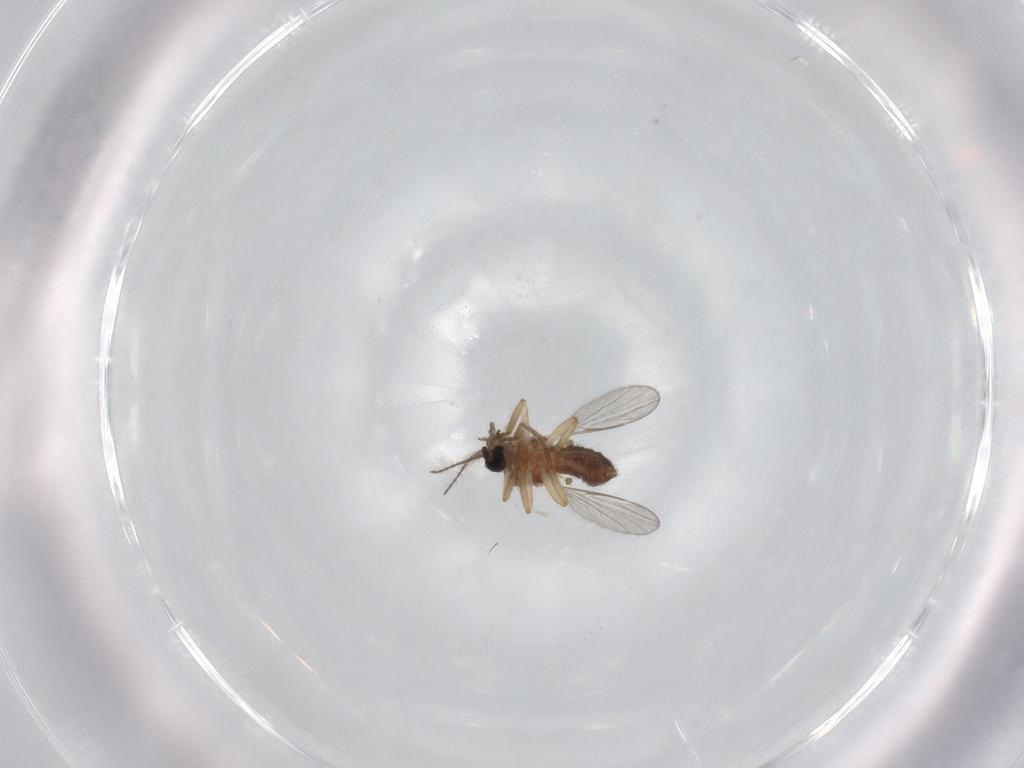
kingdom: Animalia
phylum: Arthropoda
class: Insecta
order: Diptera
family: Ceratopogonidae
